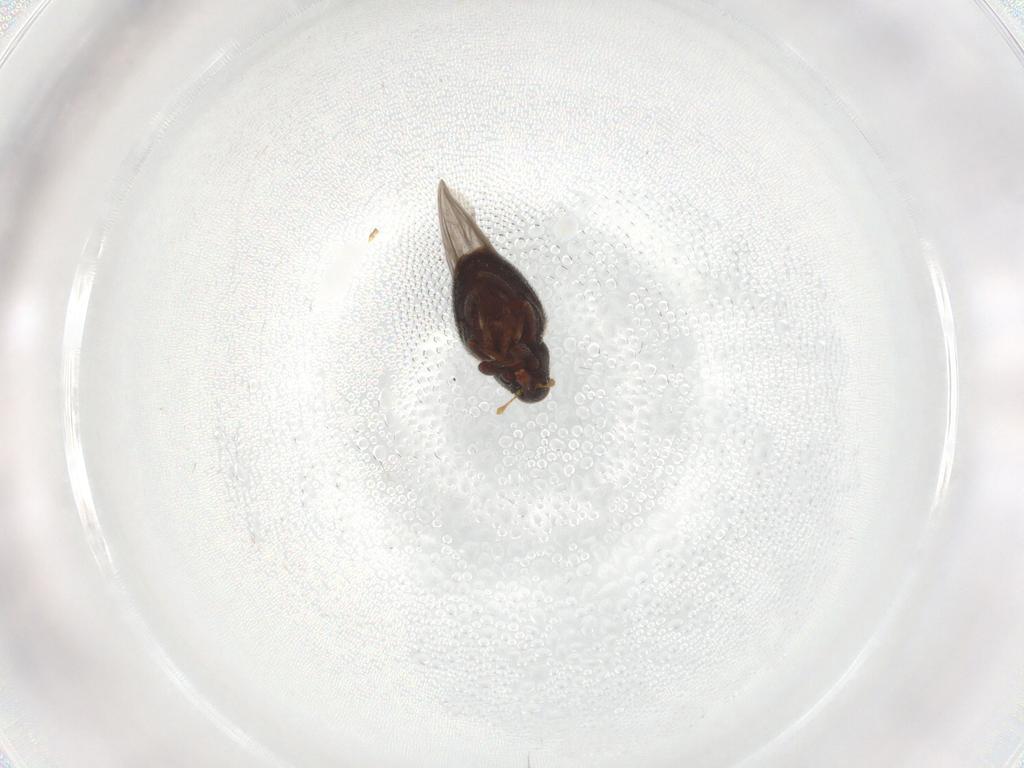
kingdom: Animalia
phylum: Arthropoda
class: Insecta
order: Coleoptera
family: Curculionidae
